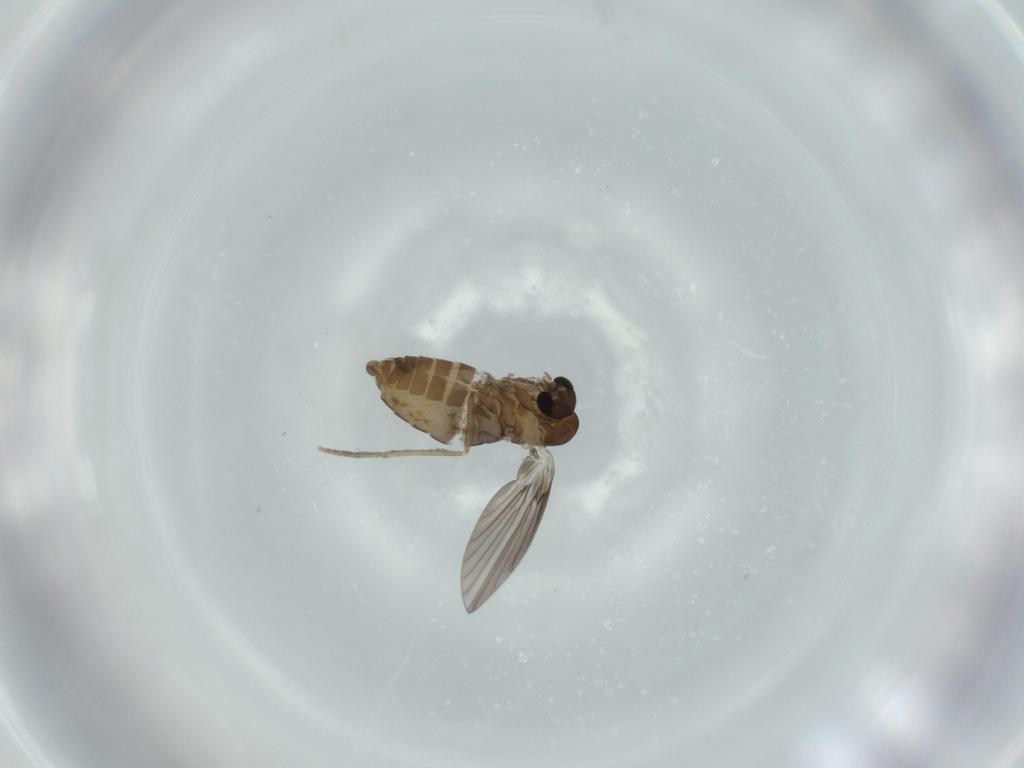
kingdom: Animalia
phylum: Arthropoda
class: Insecta
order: Diptera
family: Psychodidae
